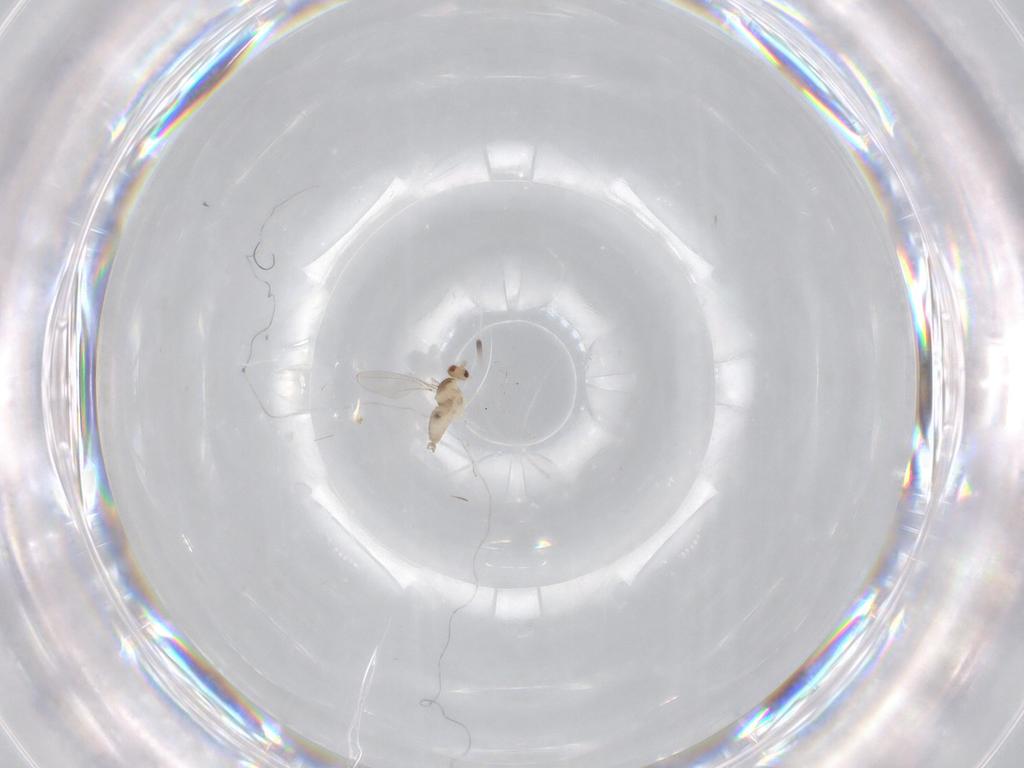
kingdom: Animalia
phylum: Arthropoda
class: Insecta
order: Diptera
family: Cecidomyiidae
